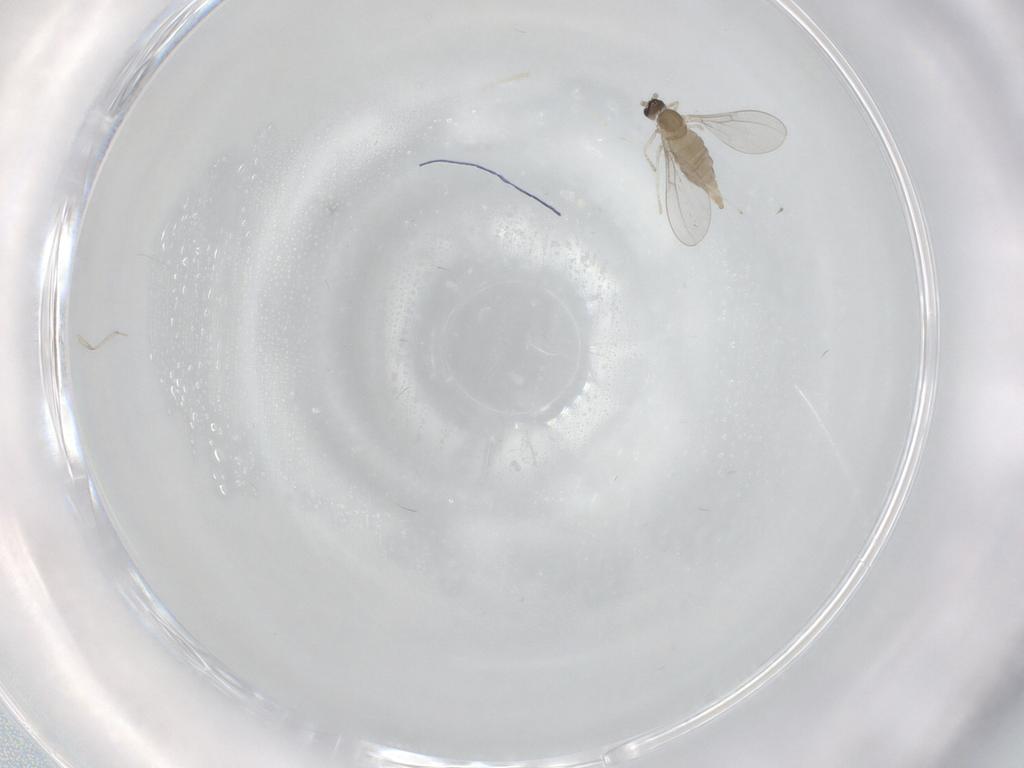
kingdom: Animalia
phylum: Arthropoda
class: Insecta
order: Diptera
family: Cecidomyiidae
